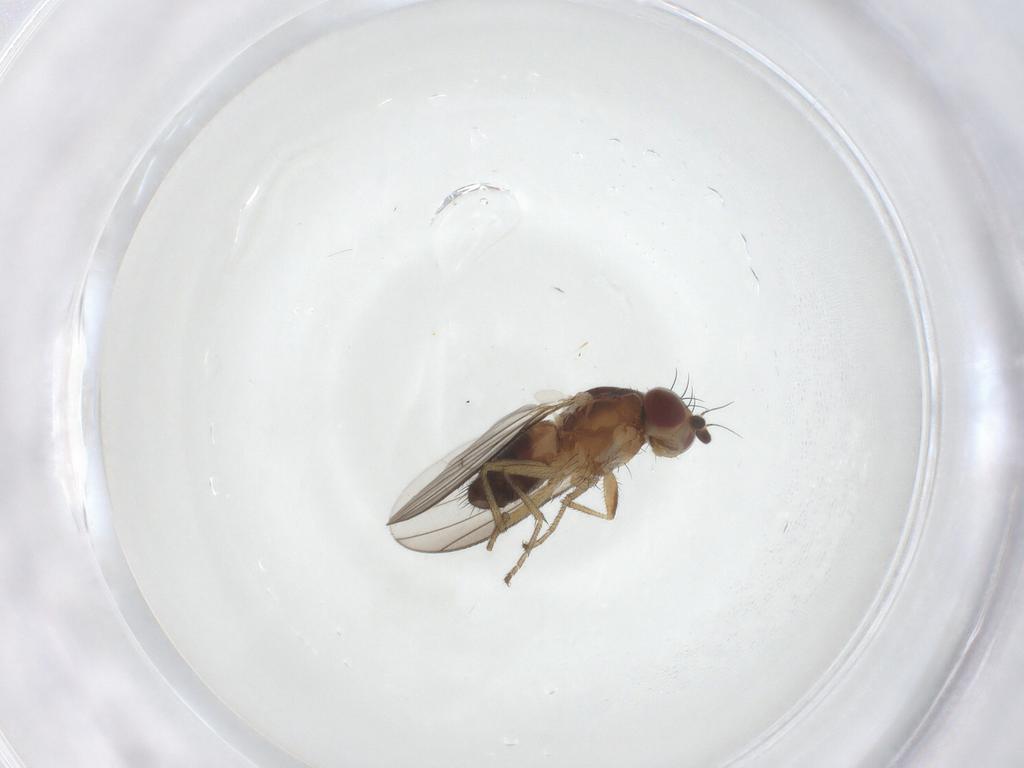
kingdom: Animalia
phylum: Arthropoda
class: Insecta
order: Diptera
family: Heleomyzidae
